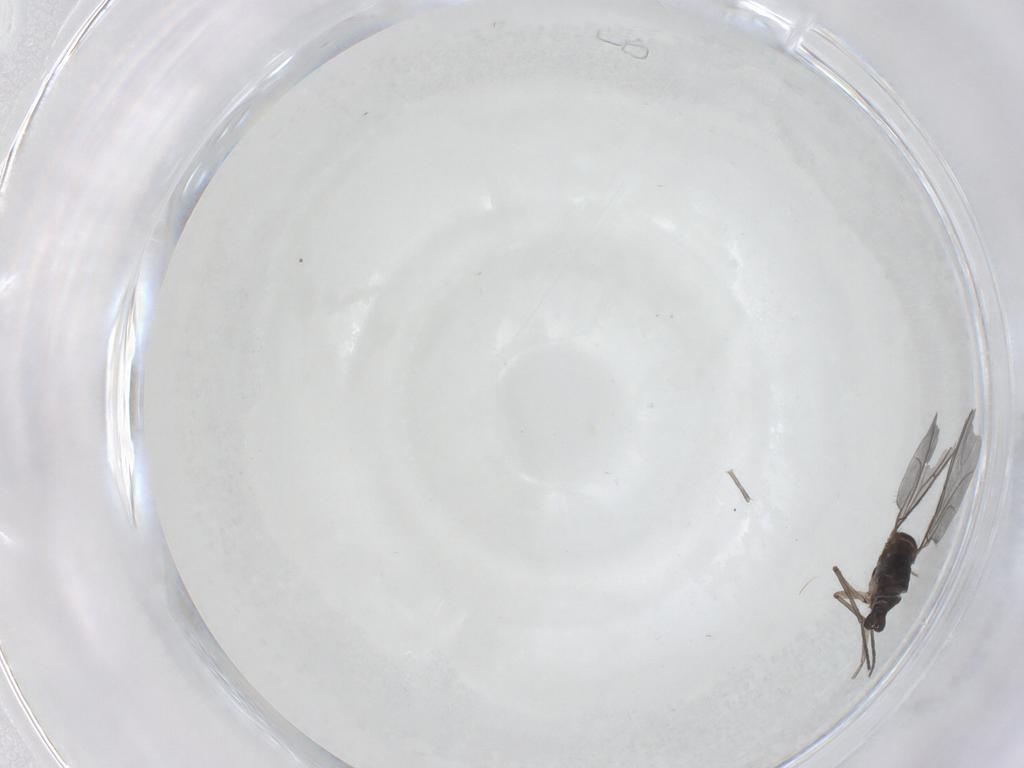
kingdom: Animalia
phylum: Arthropoda
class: Insecta
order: Diptera
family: Sciaridae
